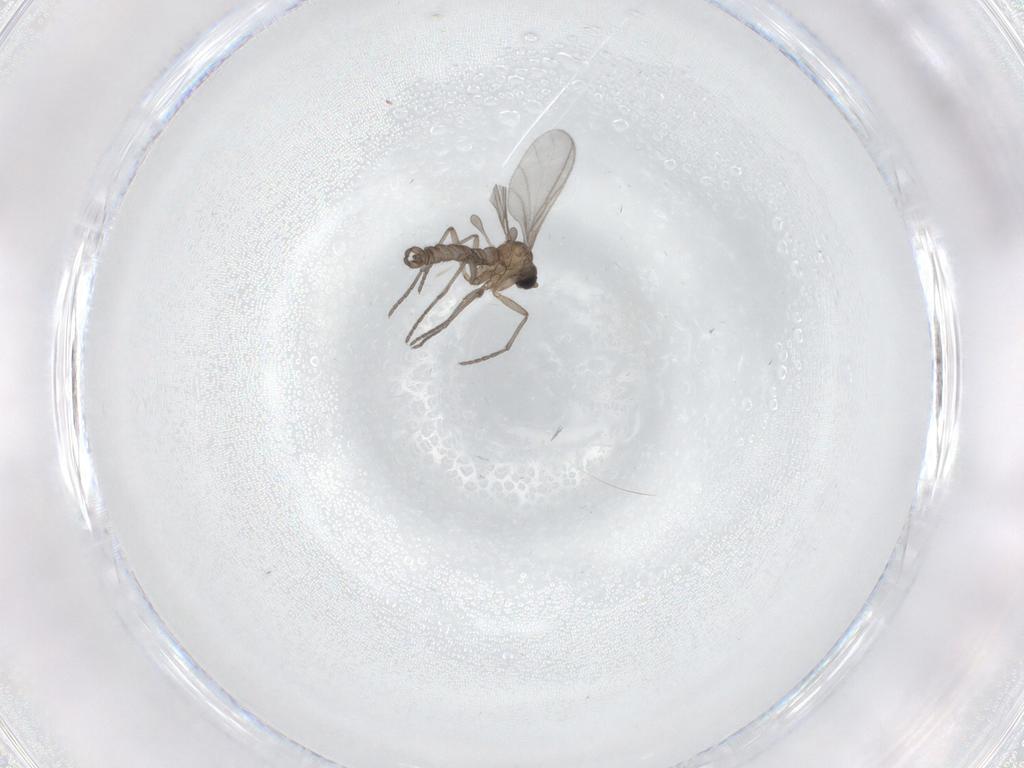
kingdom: Animalia
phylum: Arthropoda
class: Insecta
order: Diptera
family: Sciaridae
